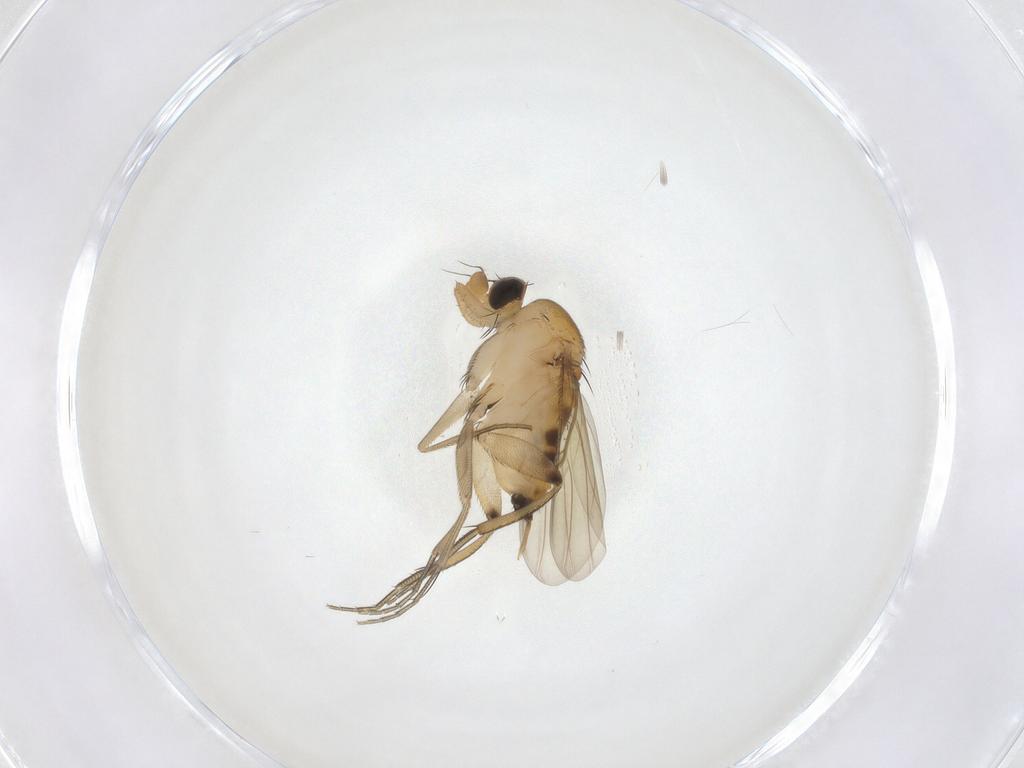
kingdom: Animalia
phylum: Arthropoda
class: Insecta
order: Diptera
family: Phoridae
